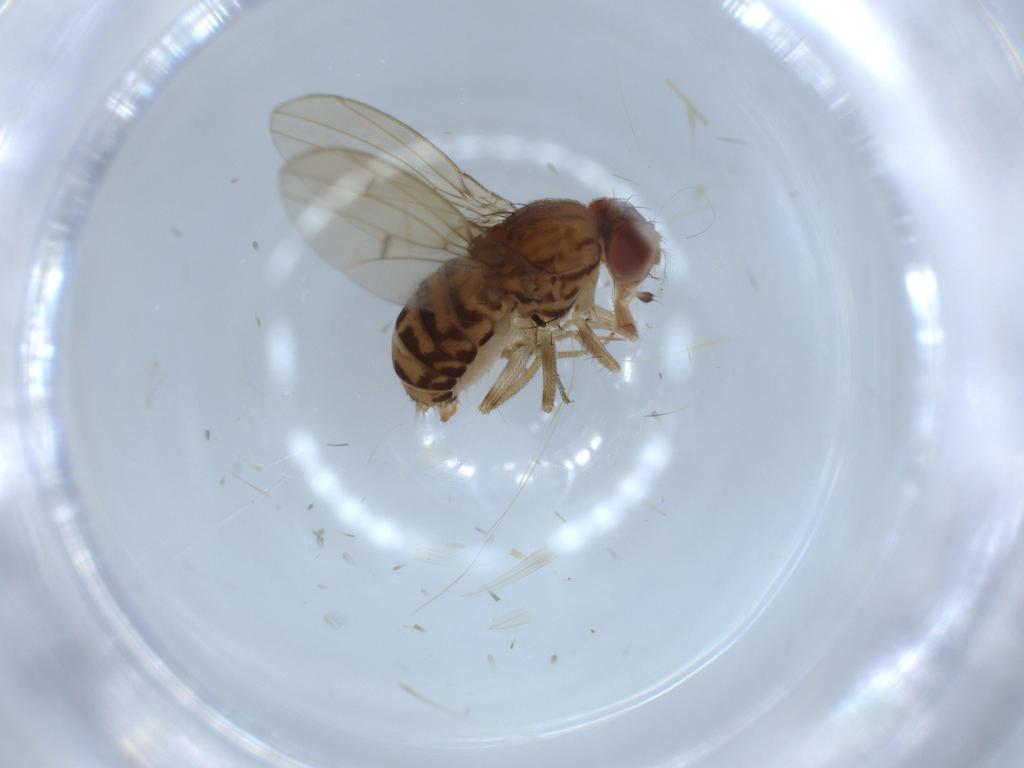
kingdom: Animalia
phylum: Arthropoda
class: Insecta
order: Diptera
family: Drosophilidae
